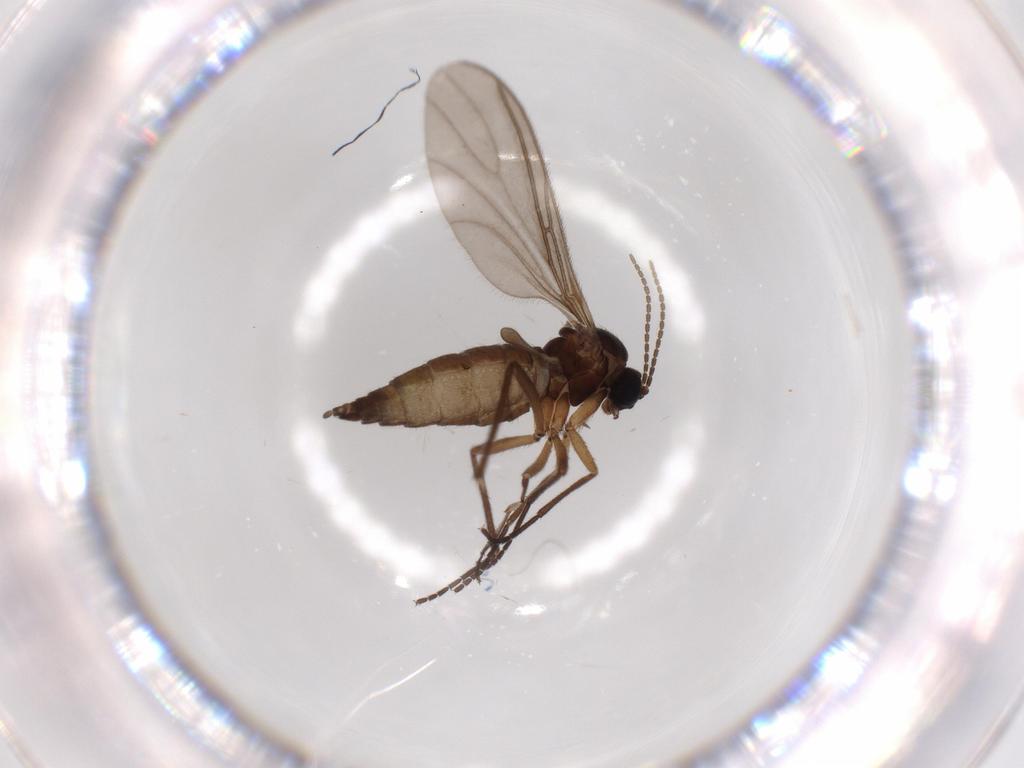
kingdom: Animalia
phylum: Arthropoda
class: Insecta
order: Diptera
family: Sciaridae
